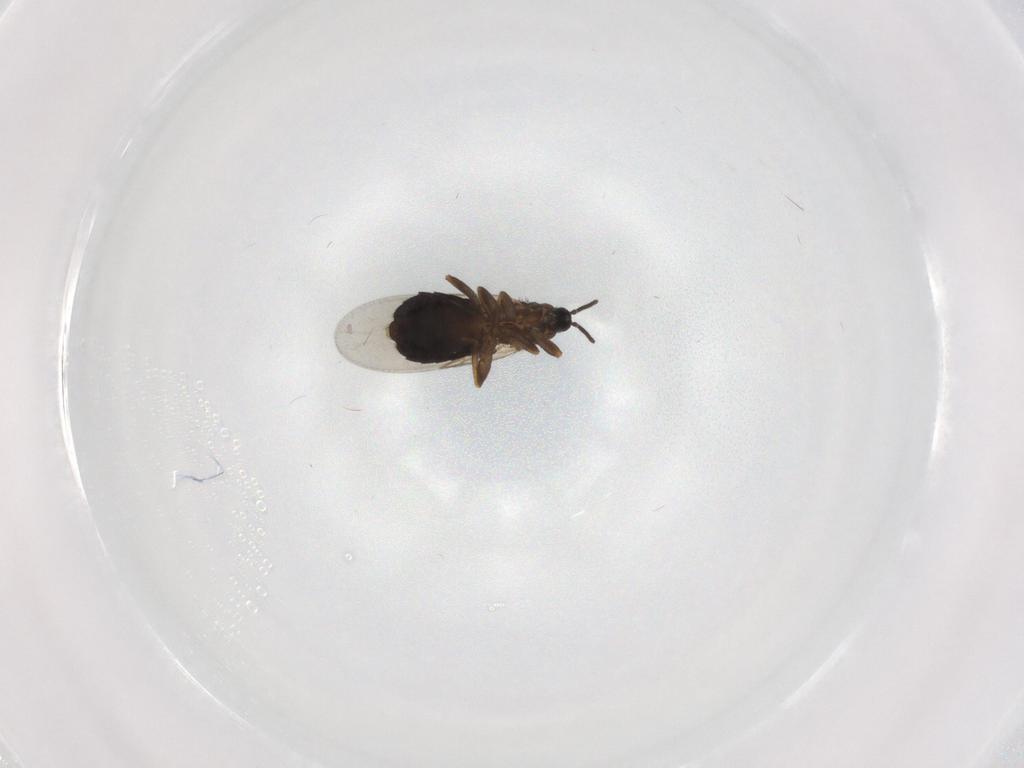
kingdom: Animalia
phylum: Arthropoda
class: Insecta
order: Diptera
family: Scatopsidae
